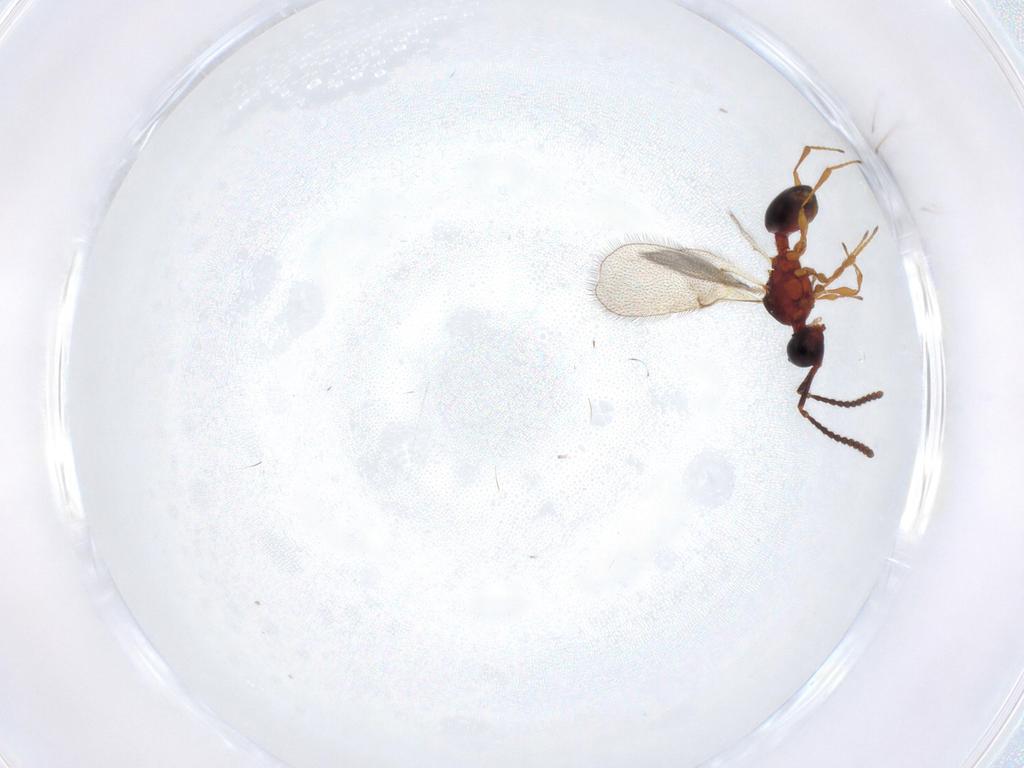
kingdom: Animalia
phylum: Arthropoda
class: Insecta
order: Hymenoptera
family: Diapriidae
